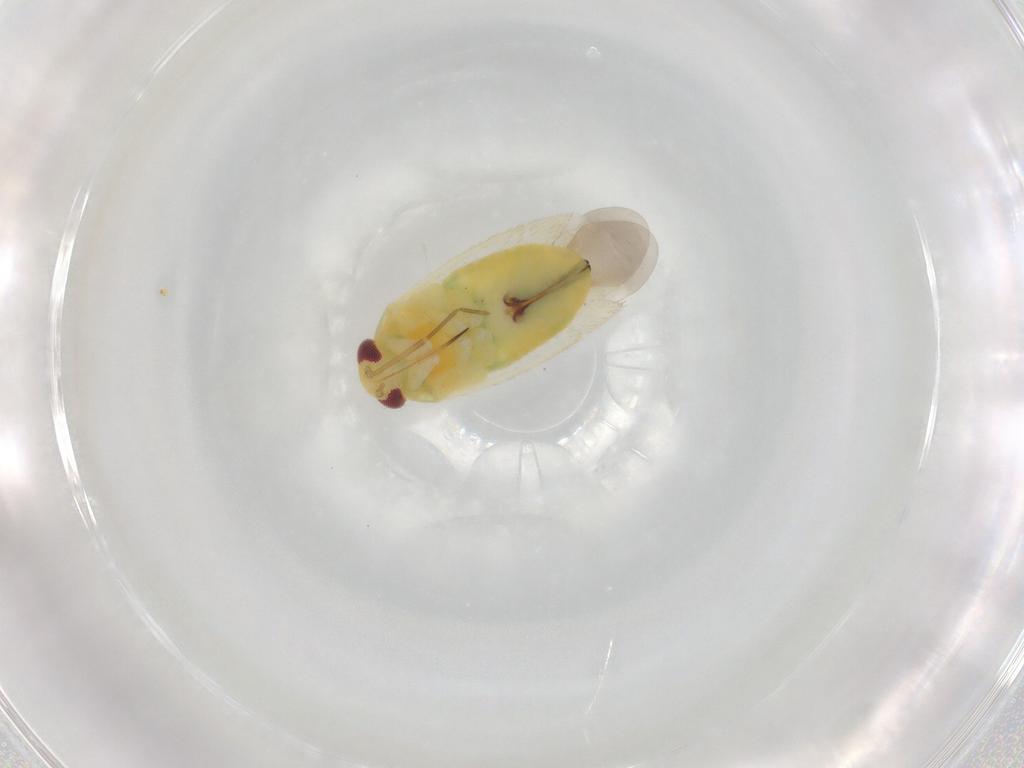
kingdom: Animalia
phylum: Arthropoda
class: Insecta
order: Hemiptera
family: Miridae
